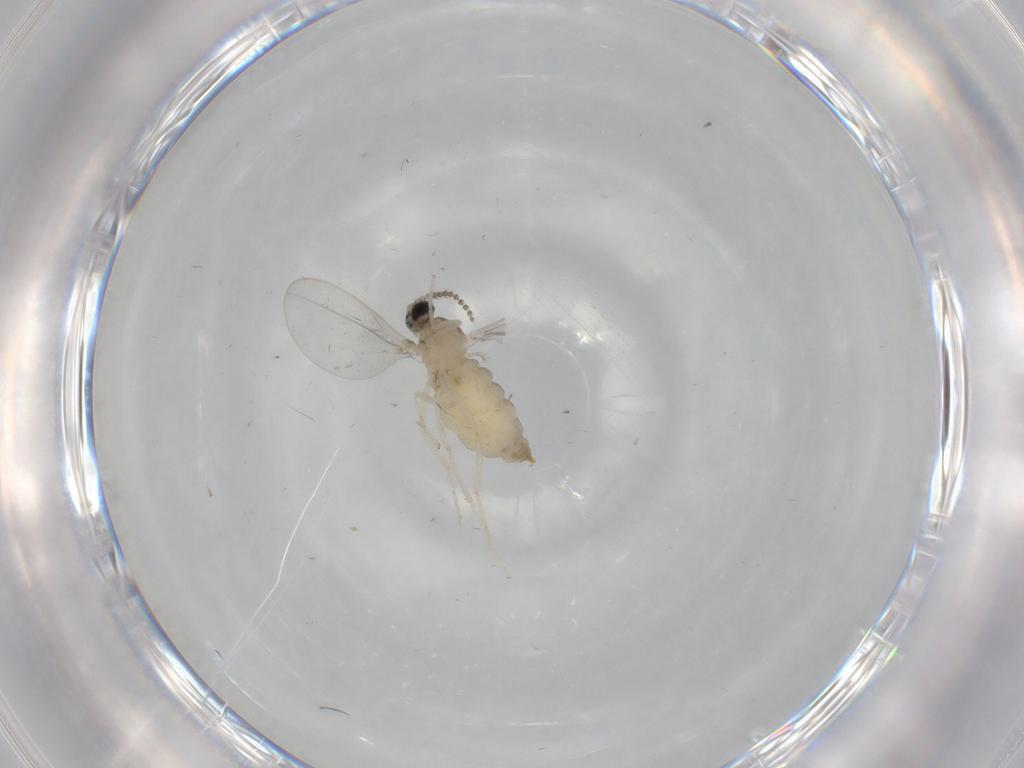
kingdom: Animalia
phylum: Arthropoda
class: Insecta
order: Diptera
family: Cecidomyiidae
